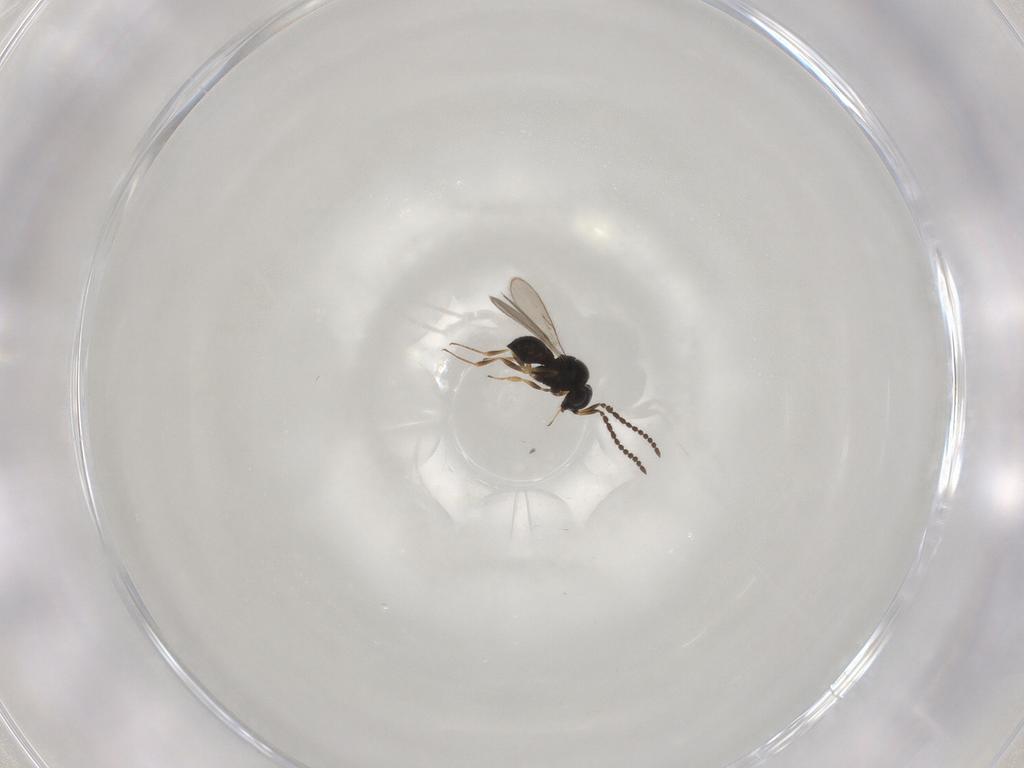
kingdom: Animalia
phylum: Arthropoda
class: Insecta
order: Hymenoptera
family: Scelionidae
